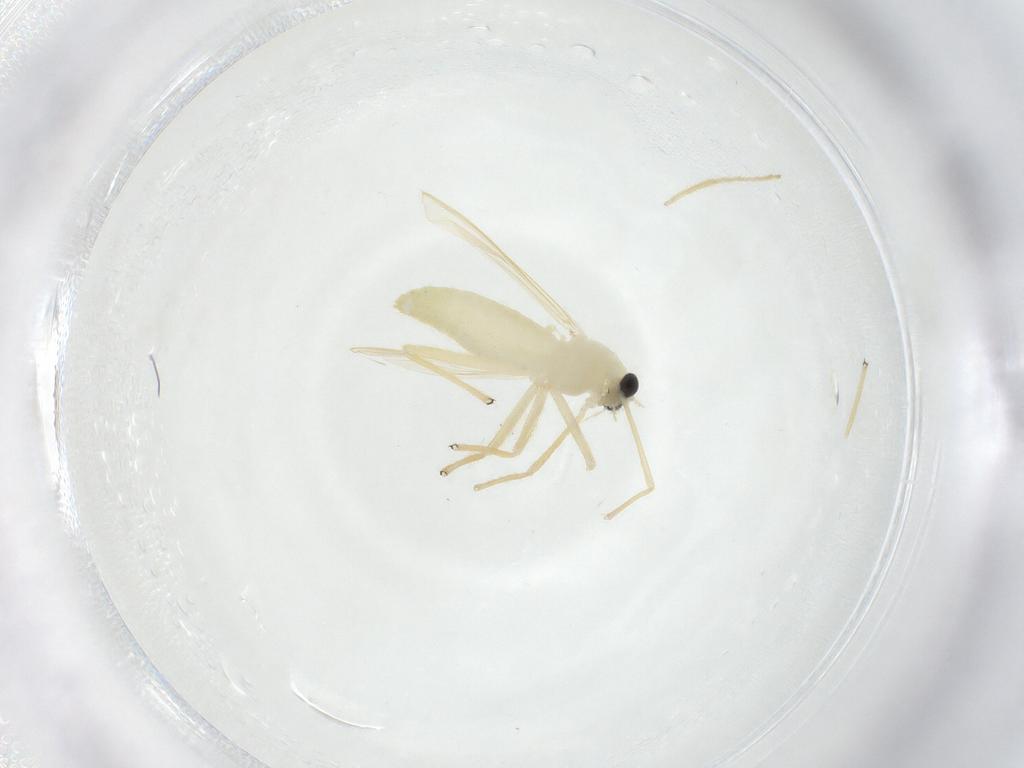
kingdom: Animalia
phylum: Arthropoda
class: Insecta
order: Diptera
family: Chironomidae
